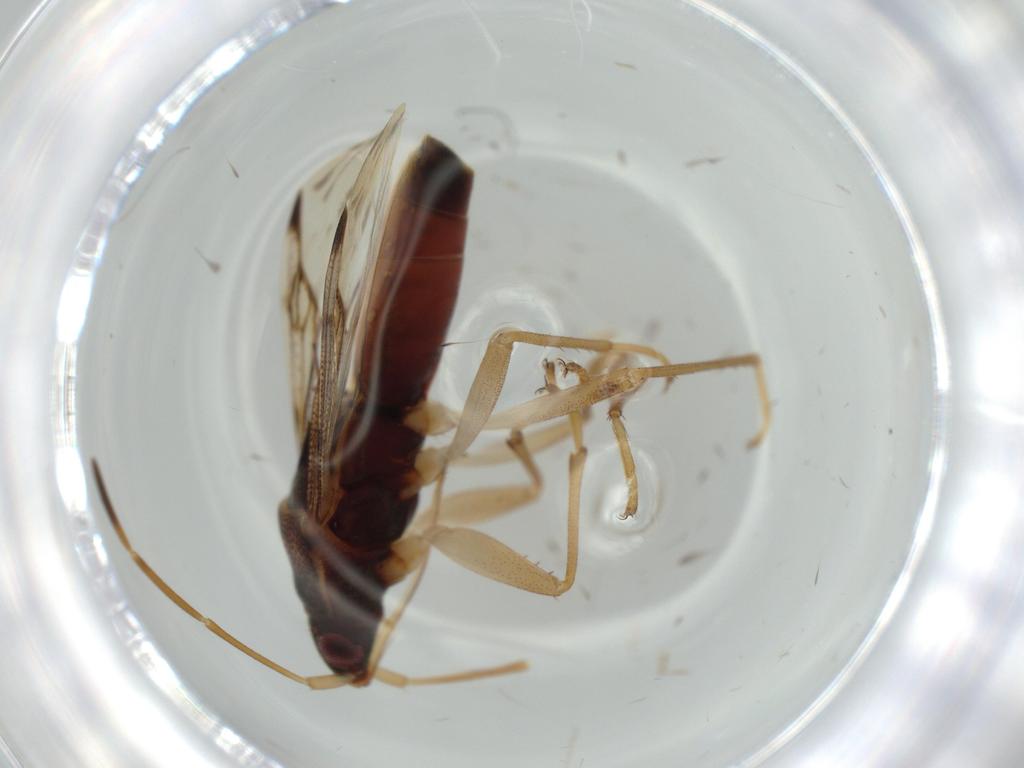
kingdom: Animalia
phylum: Arthropoda
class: Insecta
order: Hemiptera
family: Rhyparochromidae
